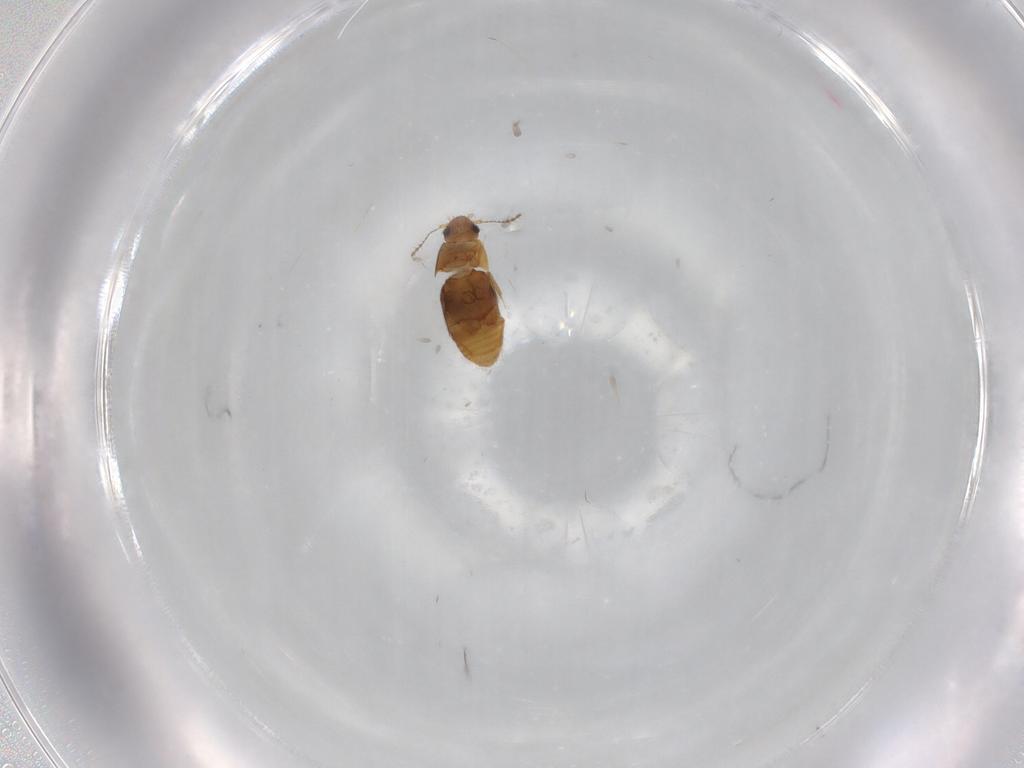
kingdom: Animalia
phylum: Arthropoda
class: Insecta
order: Coleoptera
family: Ptiliidae
